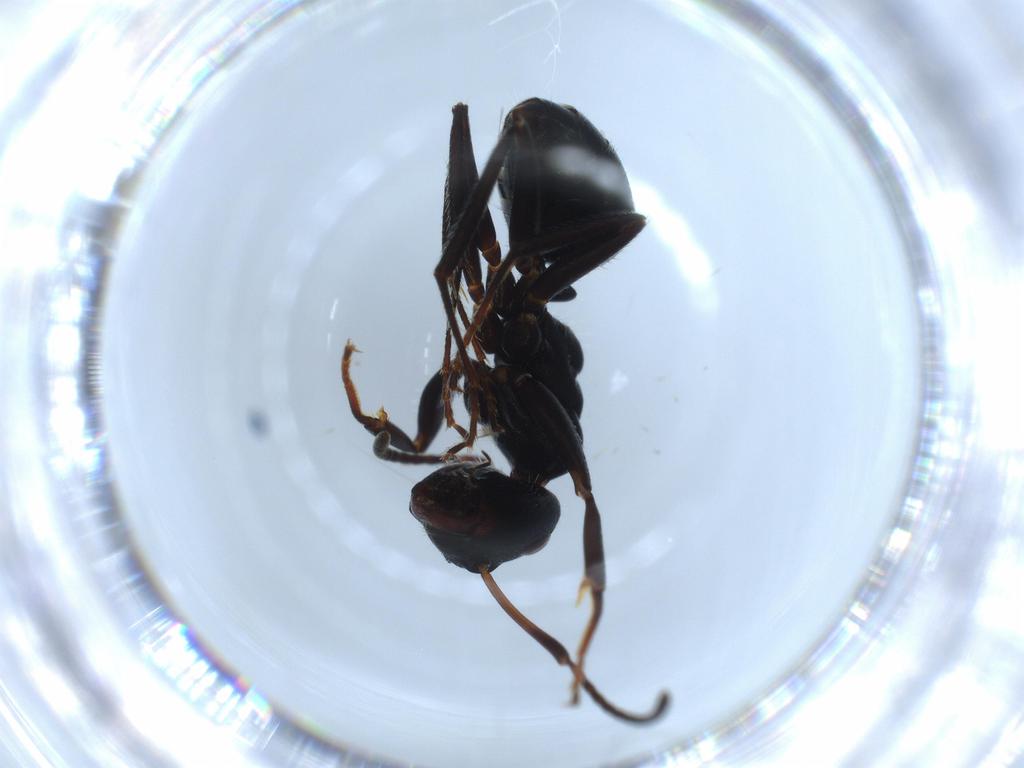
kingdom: Animalia
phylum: Arthropoda
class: Insecta
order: Hymenoptera
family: Formicidae
